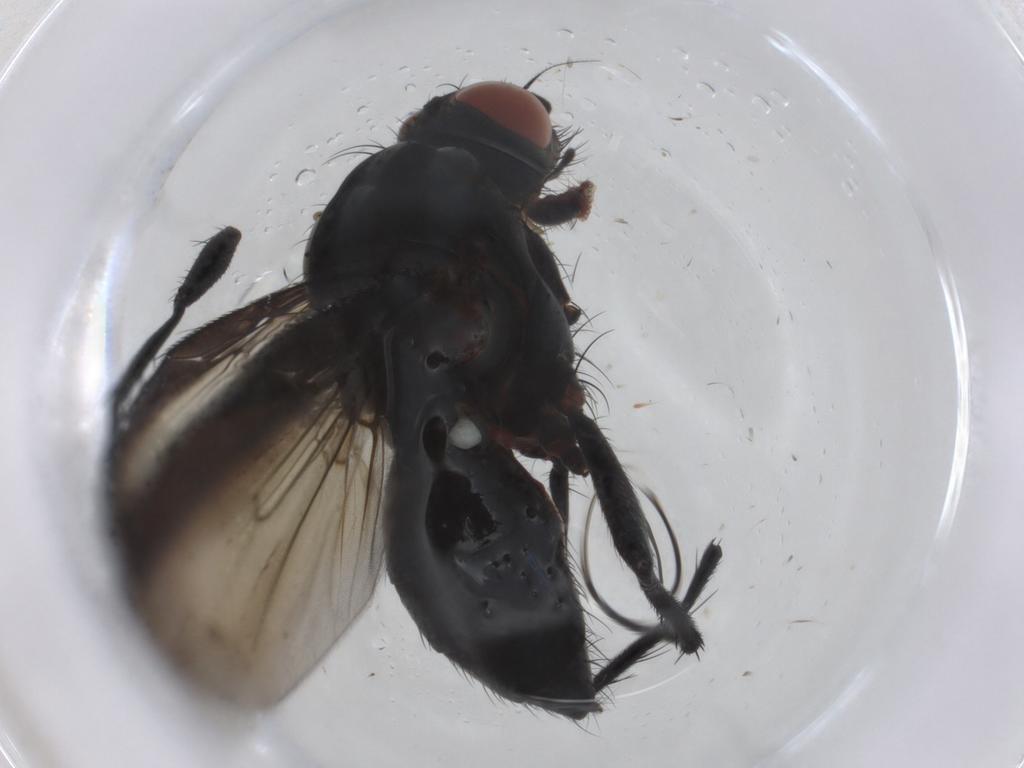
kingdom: Animalia
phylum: Arthropoda
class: Insecta
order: Diptera
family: Anthomyiidae
